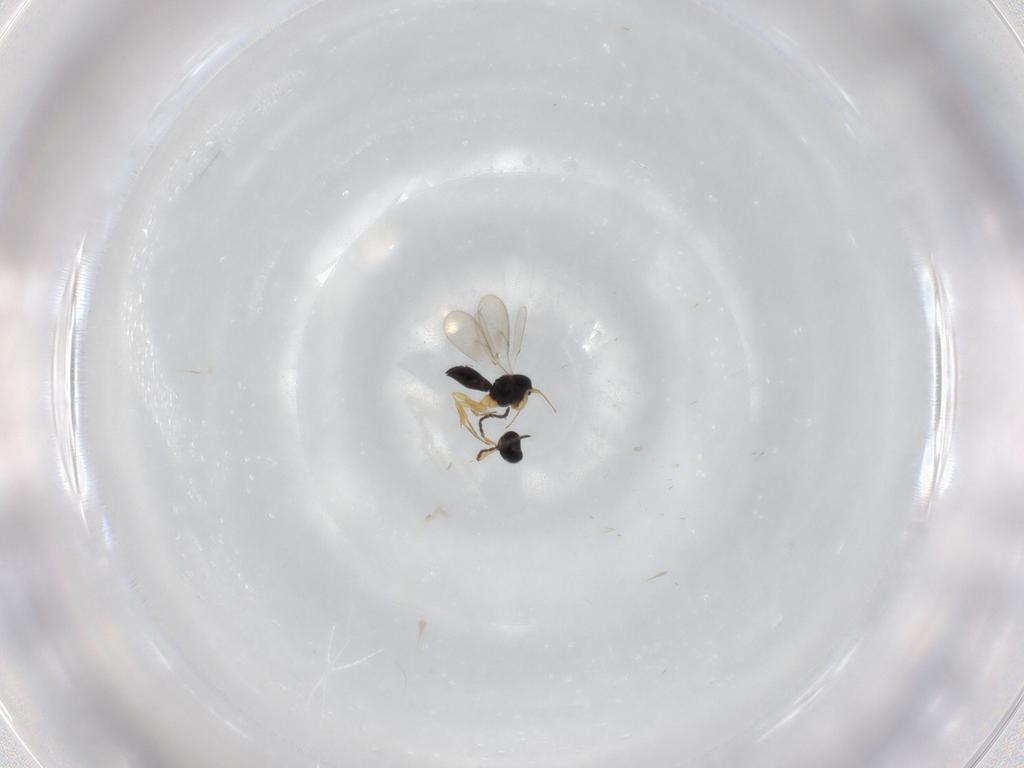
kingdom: Animalia
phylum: Arthropoda
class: Insecta
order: Hymenoptera
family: Scelionidae
